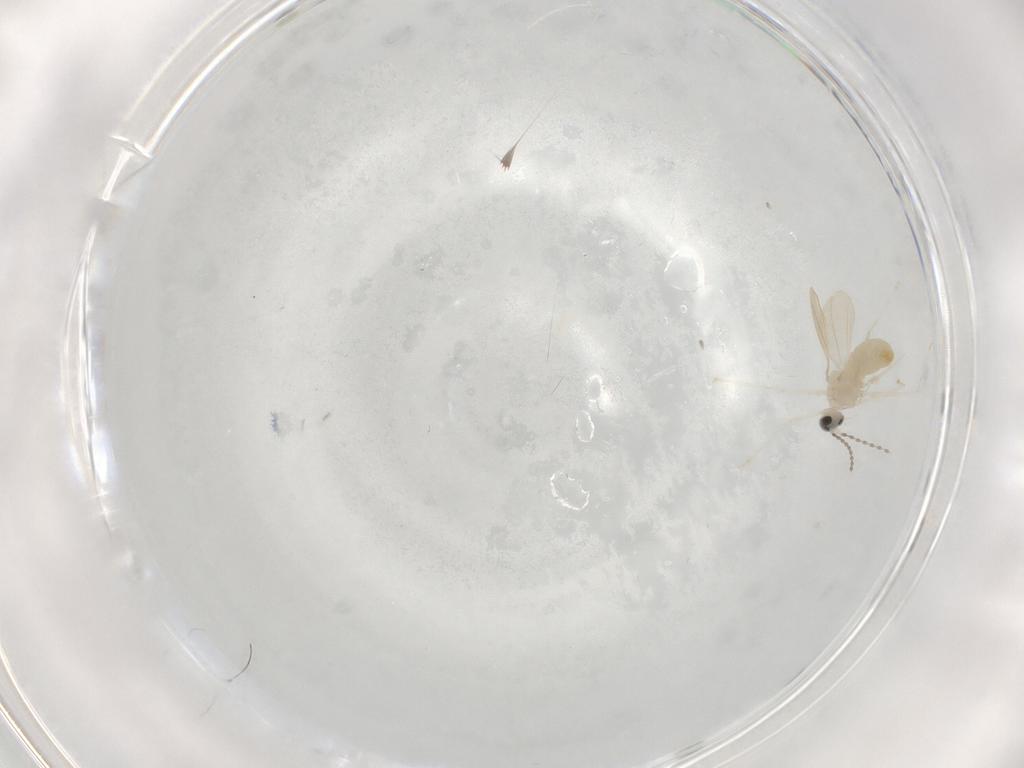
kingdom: Animalia
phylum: Arthropoda
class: Insecta
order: Diptera
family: Cecidomyiidae
